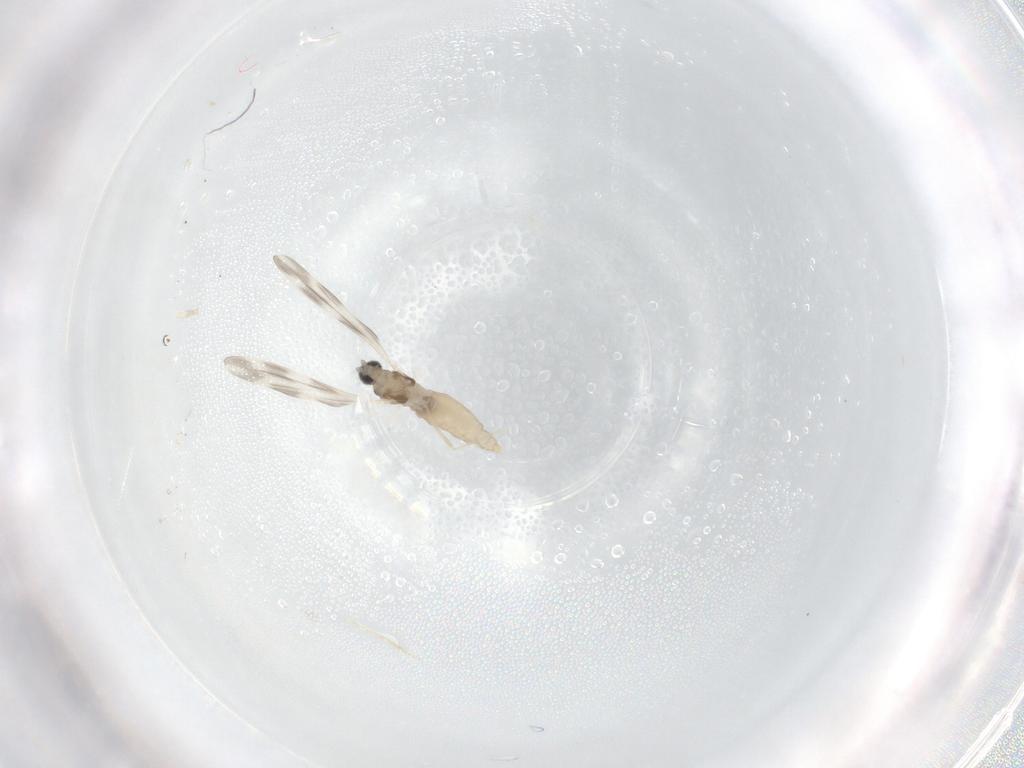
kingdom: Animalia
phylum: Arthropoda
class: Insecta
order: Diptera
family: Cecidomyiidae
